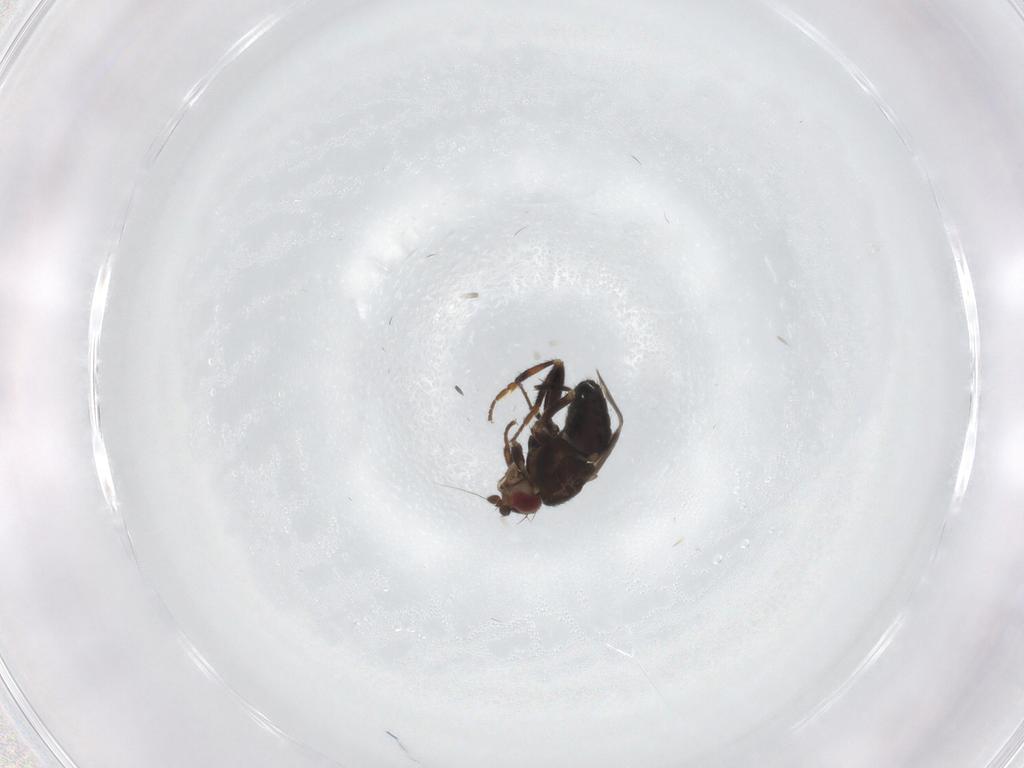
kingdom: Animalia
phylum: Arthropoda
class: Insecta
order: Diptera
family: Sphaeroceridae
